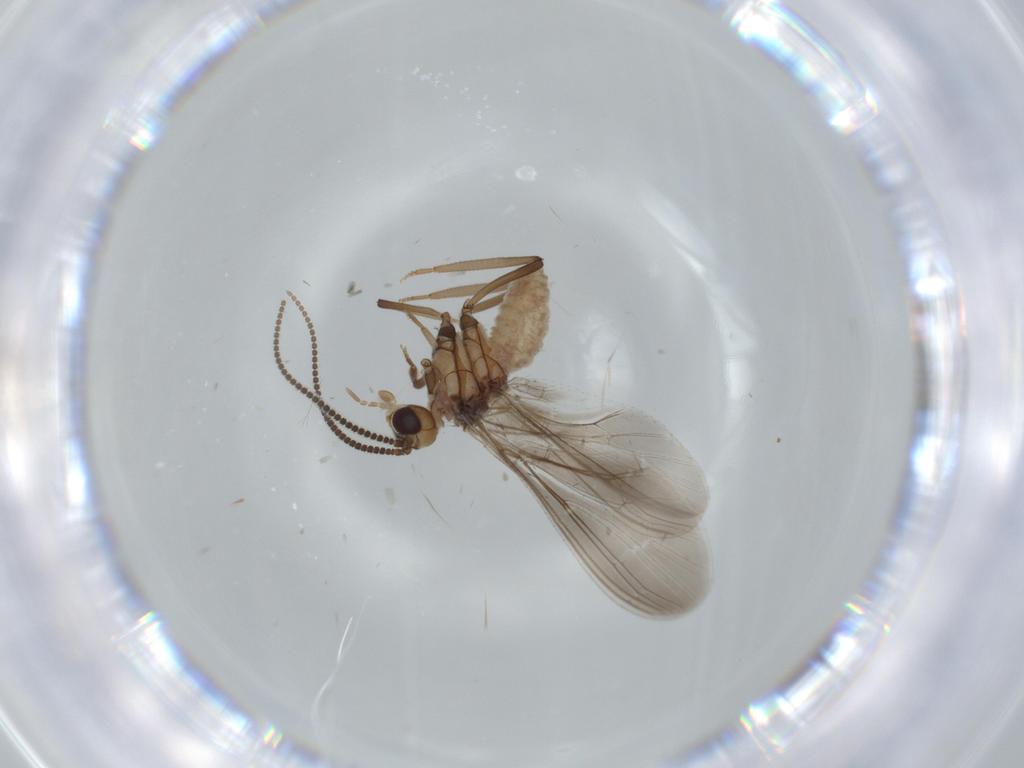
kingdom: Animalia
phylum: Arthropoda
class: Insecta
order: Neuroptera
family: Coniopterygidae
